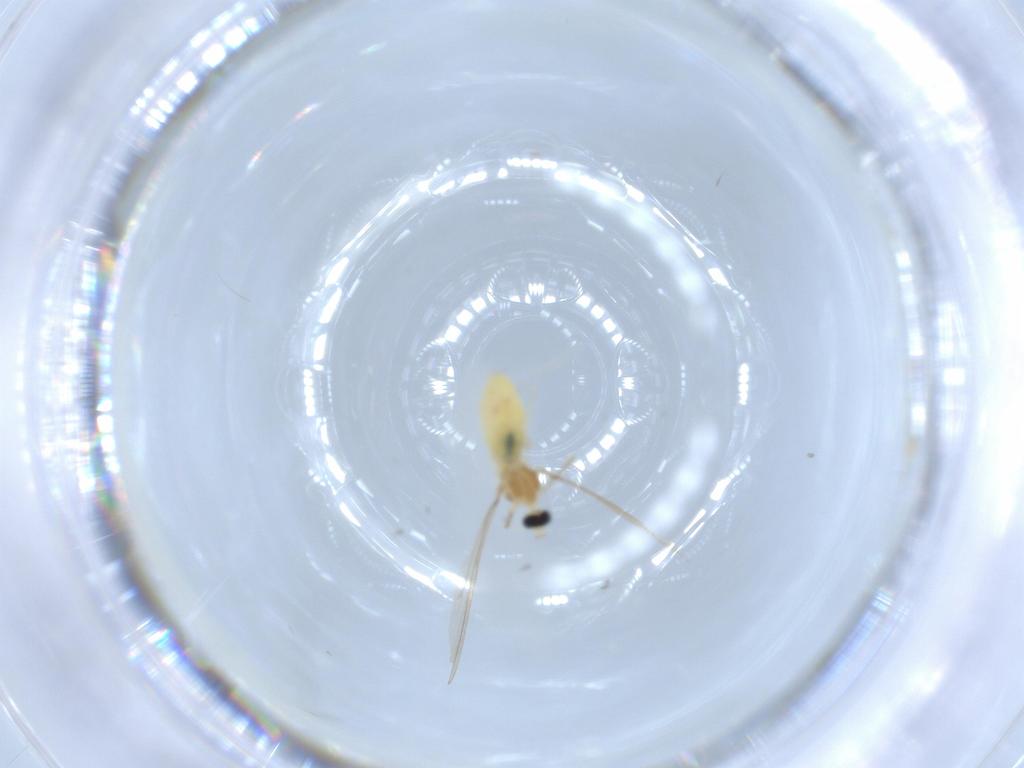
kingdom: Animalia
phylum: Arthropoda
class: Insecta
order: Diptera
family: Cecidomyiidae
